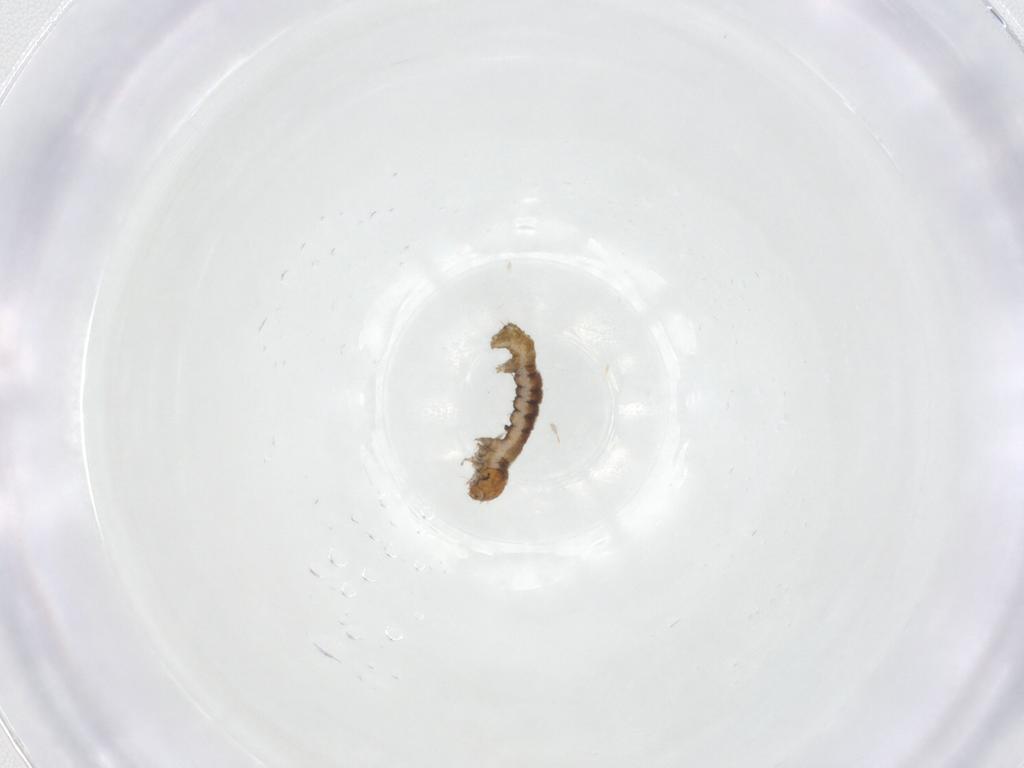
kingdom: Animalia
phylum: Arthropoda
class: Insecta
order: Lepidoptera
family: Geometridae
